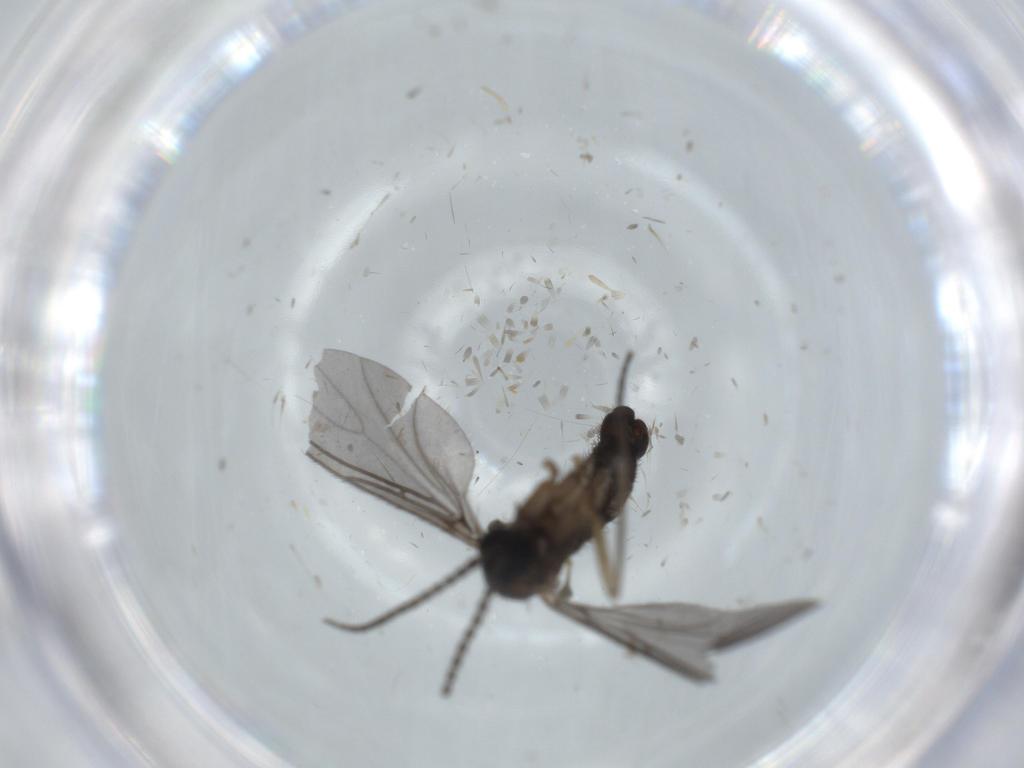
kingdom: Animalia
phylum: Arthropoda
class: Insecta
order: Diptera
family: Sciaridae
